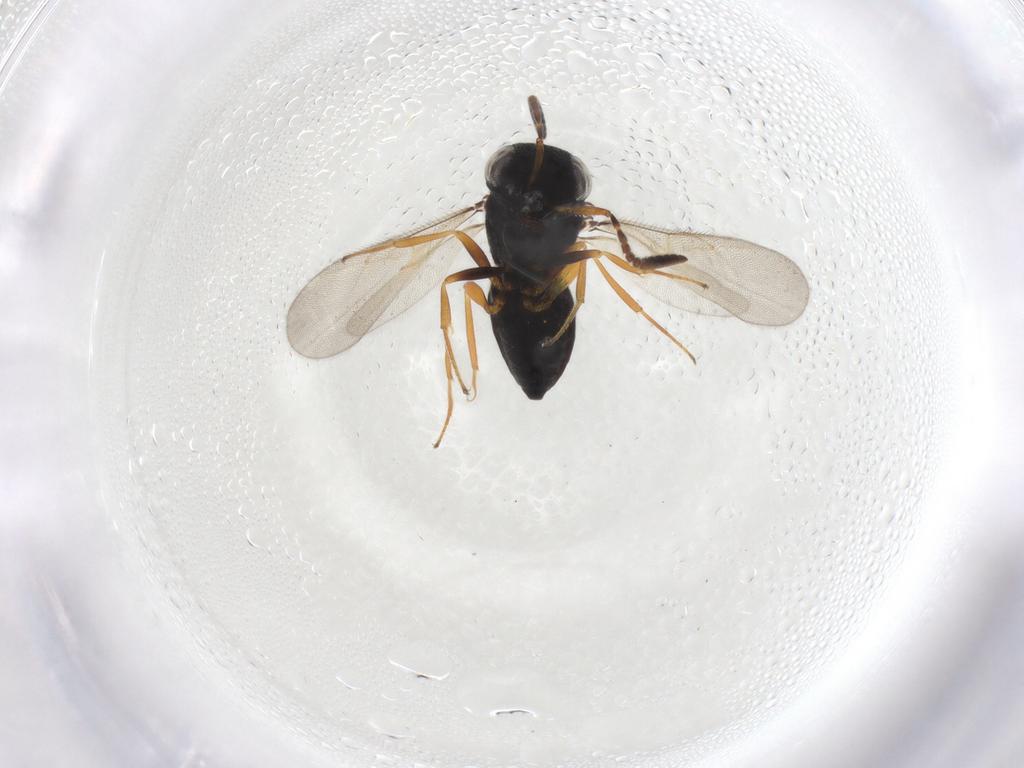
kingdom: Animalia
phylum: Arthropoda
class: Insecta
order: Hymenoptera
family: Scelionidae
